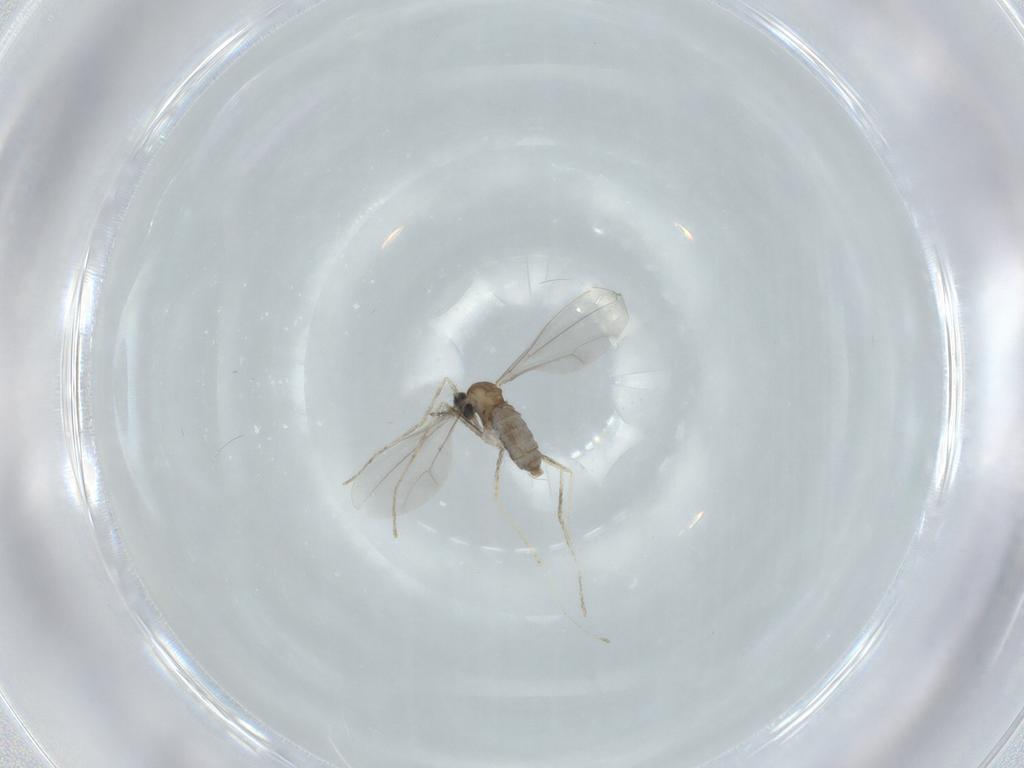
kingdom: Animalia
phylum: Arthropoda
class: Insecta
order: Diptera
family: Cecidomyiidae
